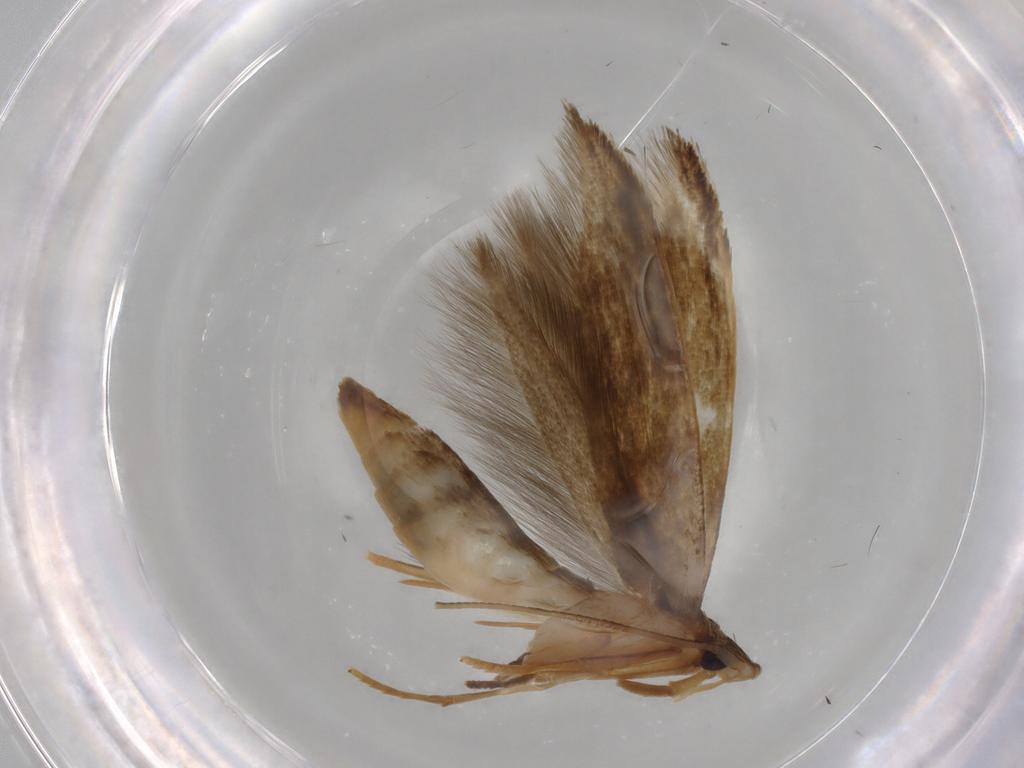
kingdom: Animalia
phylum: Arthropoda
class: Insecta
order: Lepidoptera
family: Tineidae
